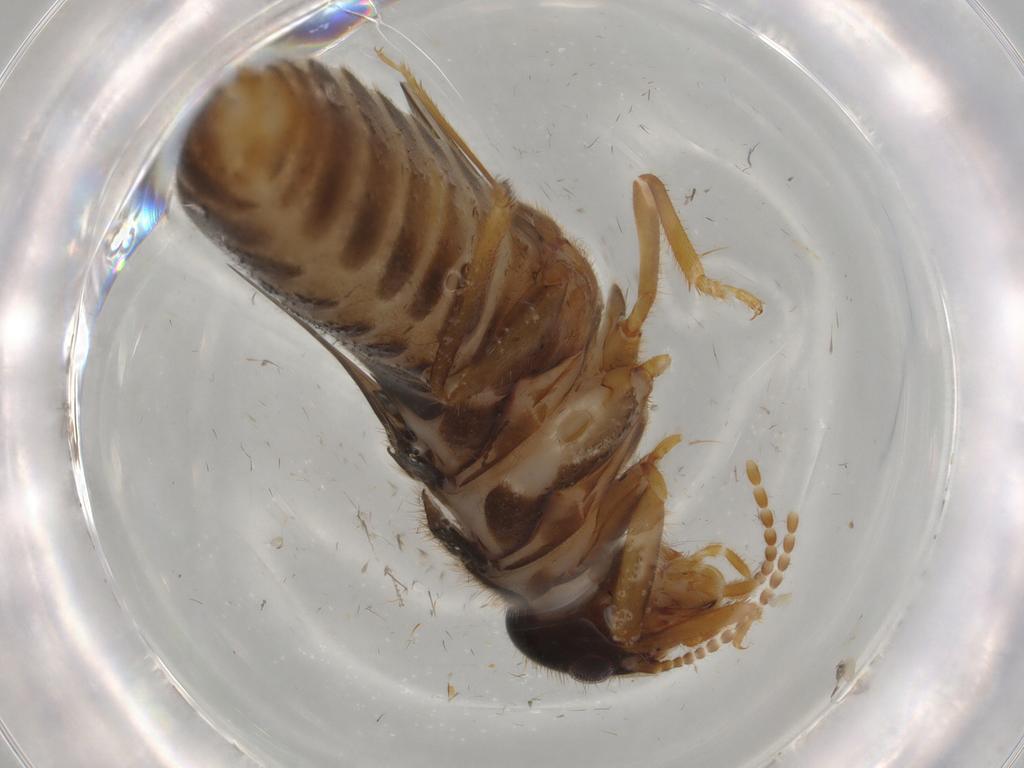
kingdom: Animalia
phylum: Arthropoda
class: Insecta
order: Blattodea
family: Termitidae
